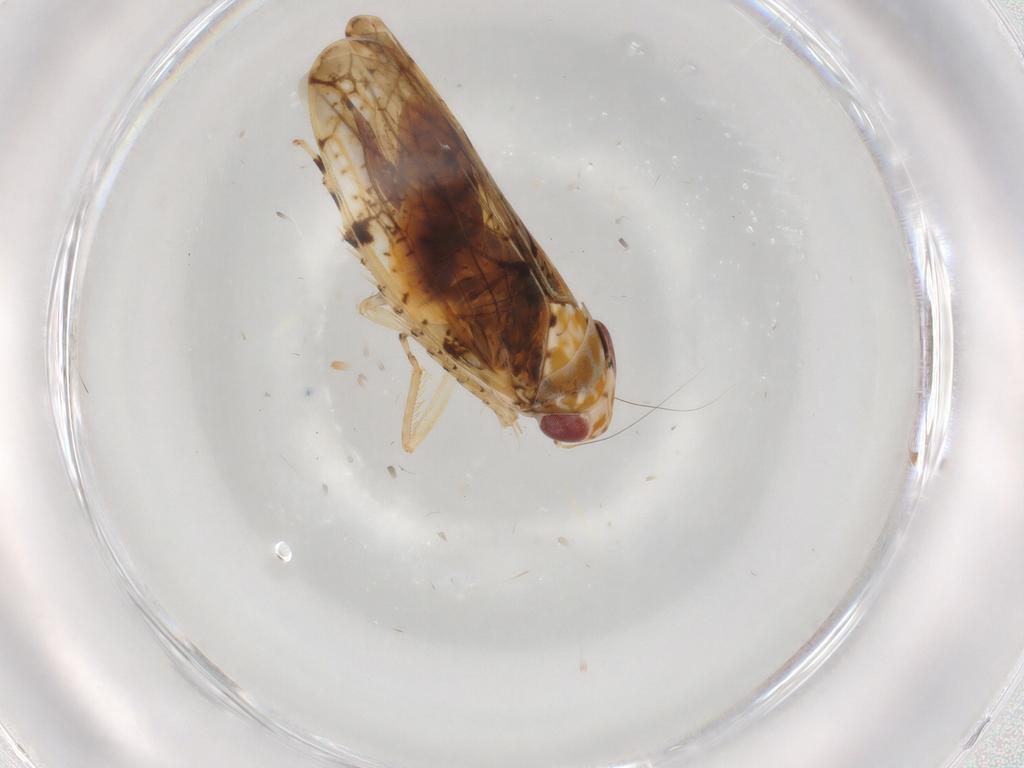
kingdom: Animalia
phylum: Arthropoda
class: Insecta
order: Hemiptera
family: Cicadellidae
